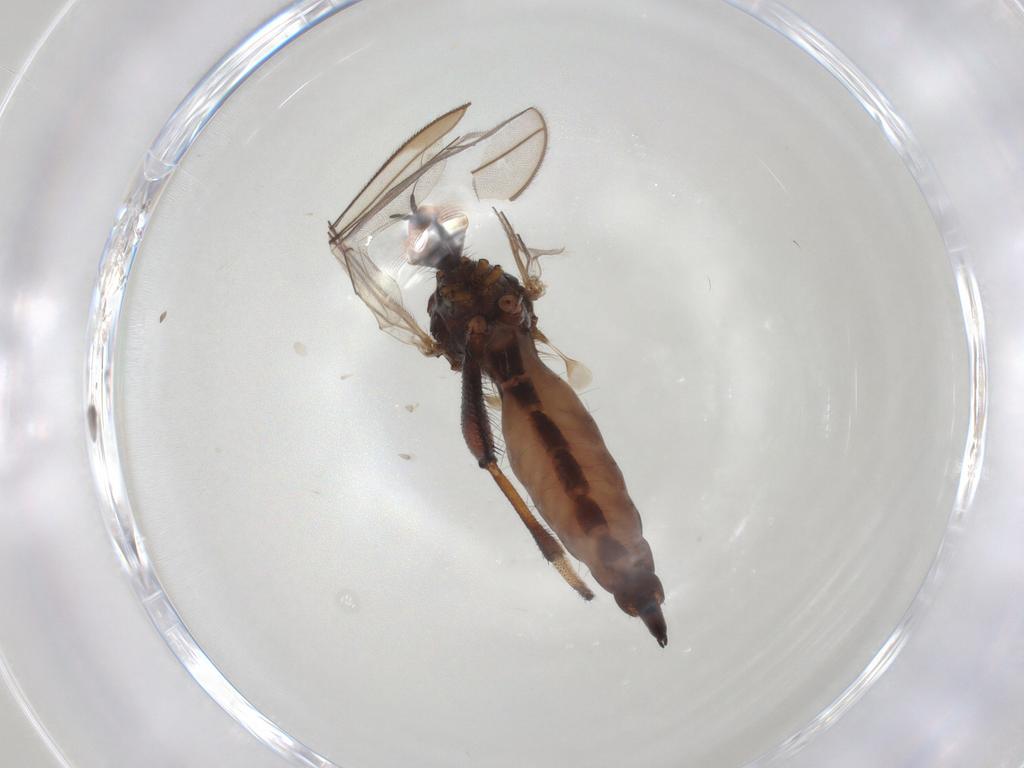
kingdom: Animalia
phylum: Arthropoda
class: Insecta
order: Diptera
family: Hybotidae
